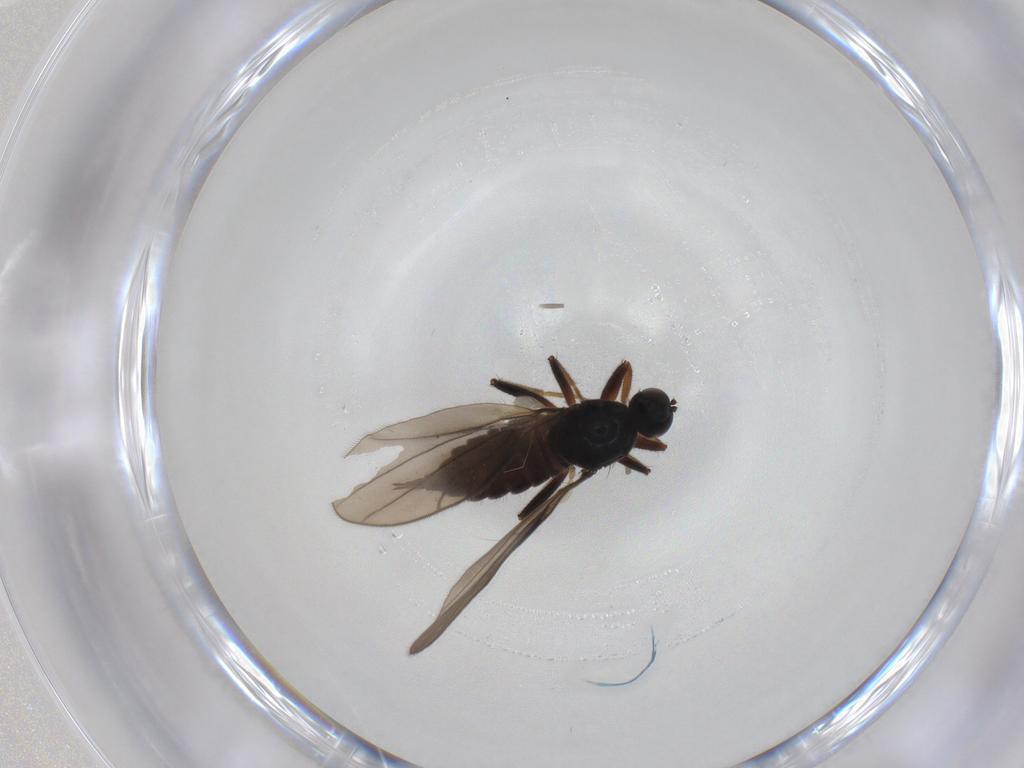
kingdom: Animalia
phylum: Arthropoda
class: Insecta
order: Diptera
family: Hybotidae
